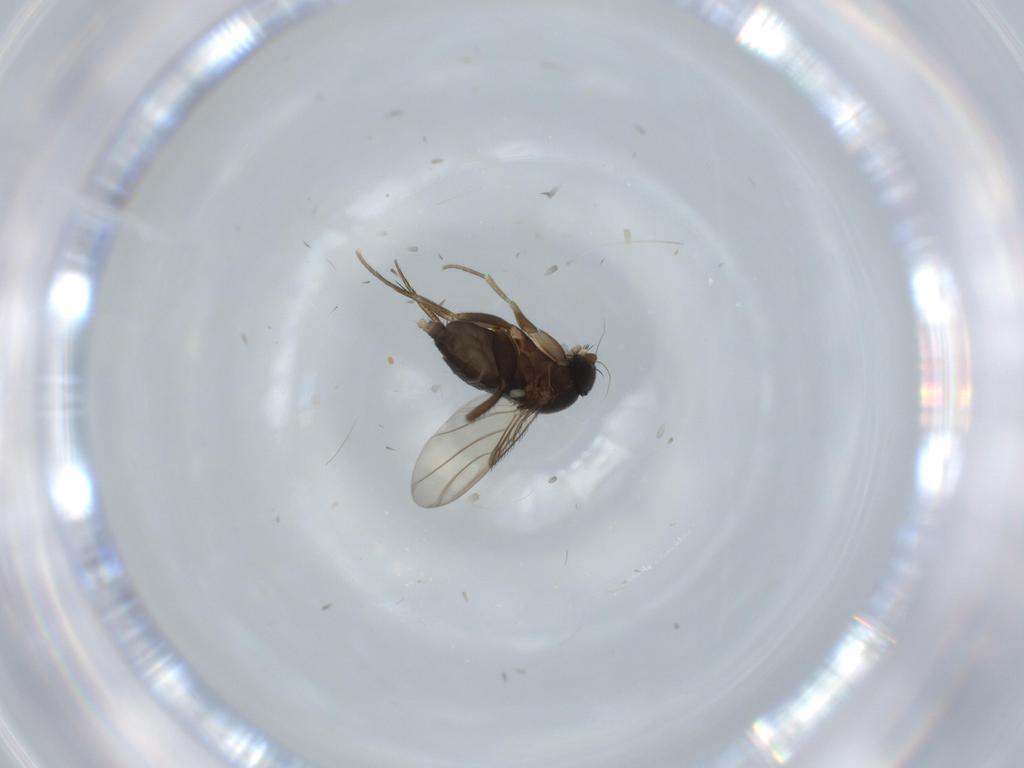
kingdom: Animalia
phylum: Arthropoda
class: Insecta
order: Diptera
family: Phoridae
